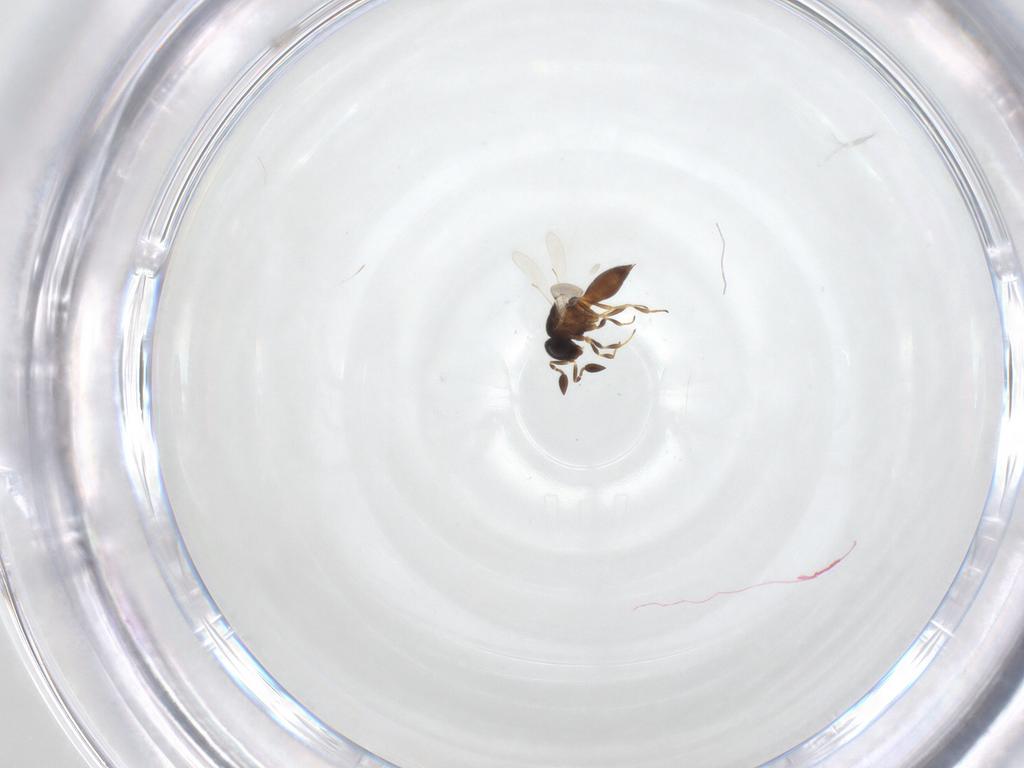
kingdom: Animalia
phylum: Arthropoda
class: Insecta
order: Hymenoptera
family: Scelionidae
